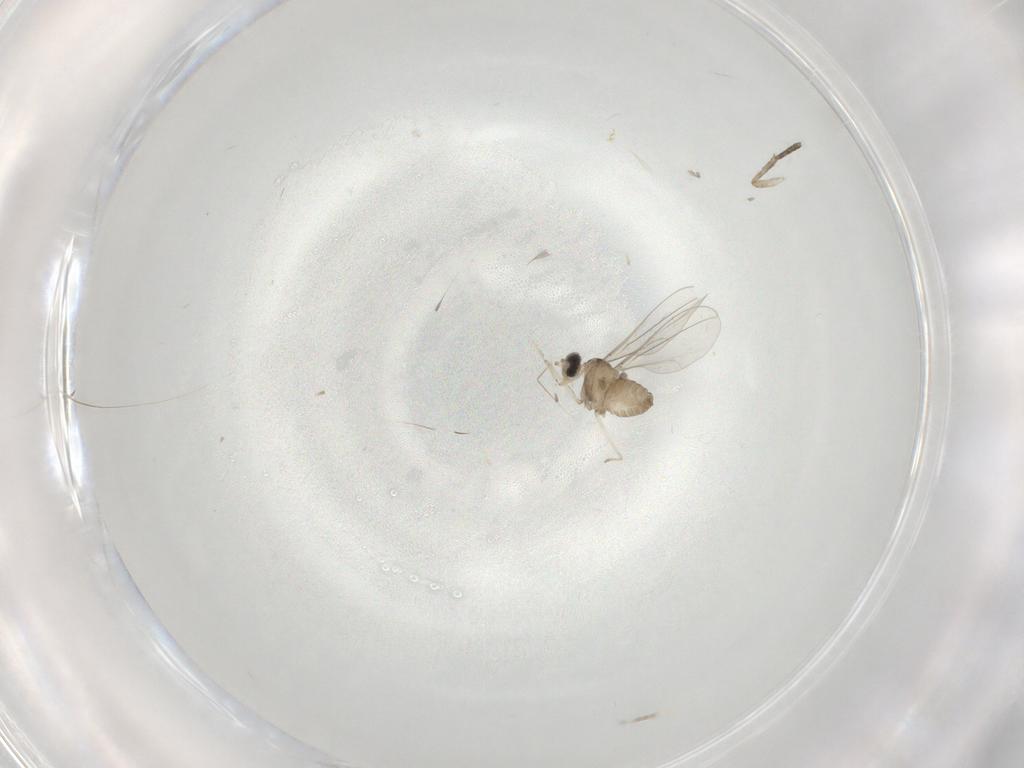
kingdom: Animalia
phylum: Arthropoda
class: Insecta
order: Diptera
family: Cecidomyiidae
